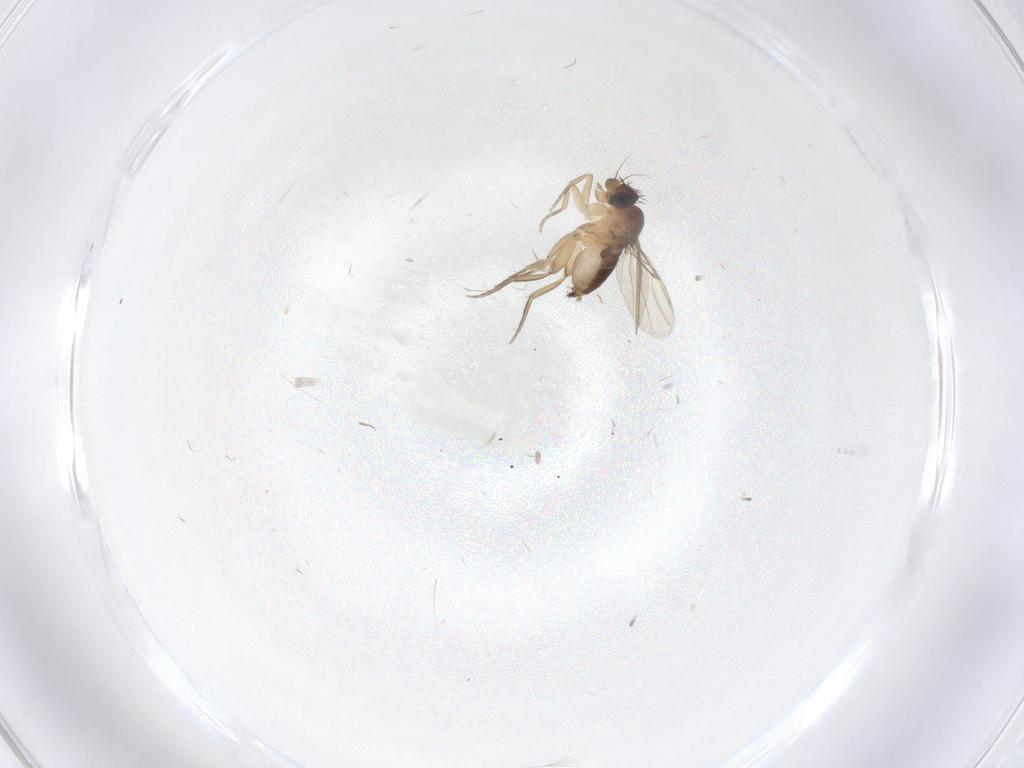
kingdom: Animalia
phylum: Arthropoda
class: Insecta
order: Diptera
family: Phoridae
